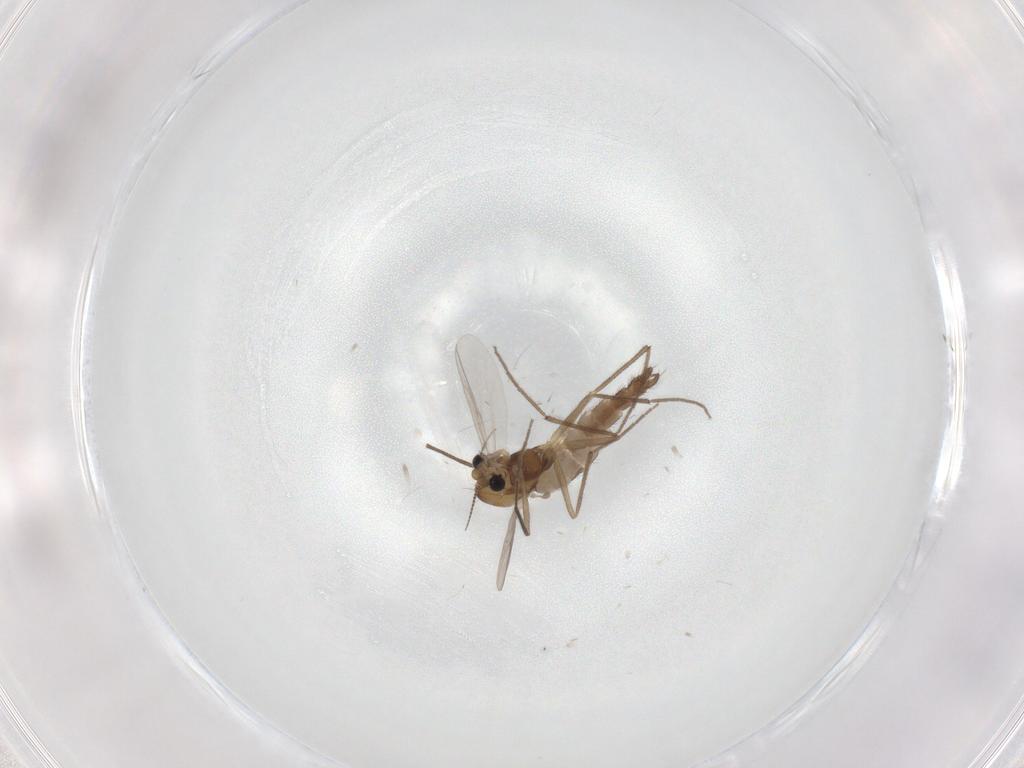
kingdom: Animalia
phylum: Arthropoda
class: Insecta
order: Diptera
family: Chironomidae
